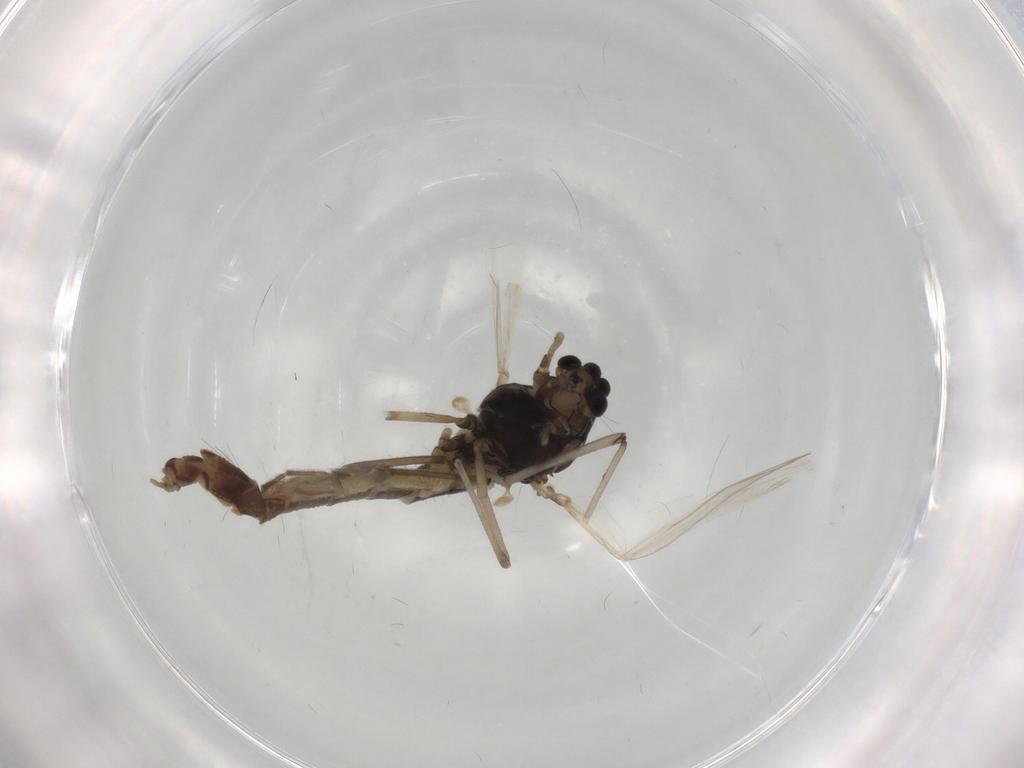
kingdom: Animalia
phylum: Arthropoda
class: Insecta
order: Diptera
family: Chironomidae
